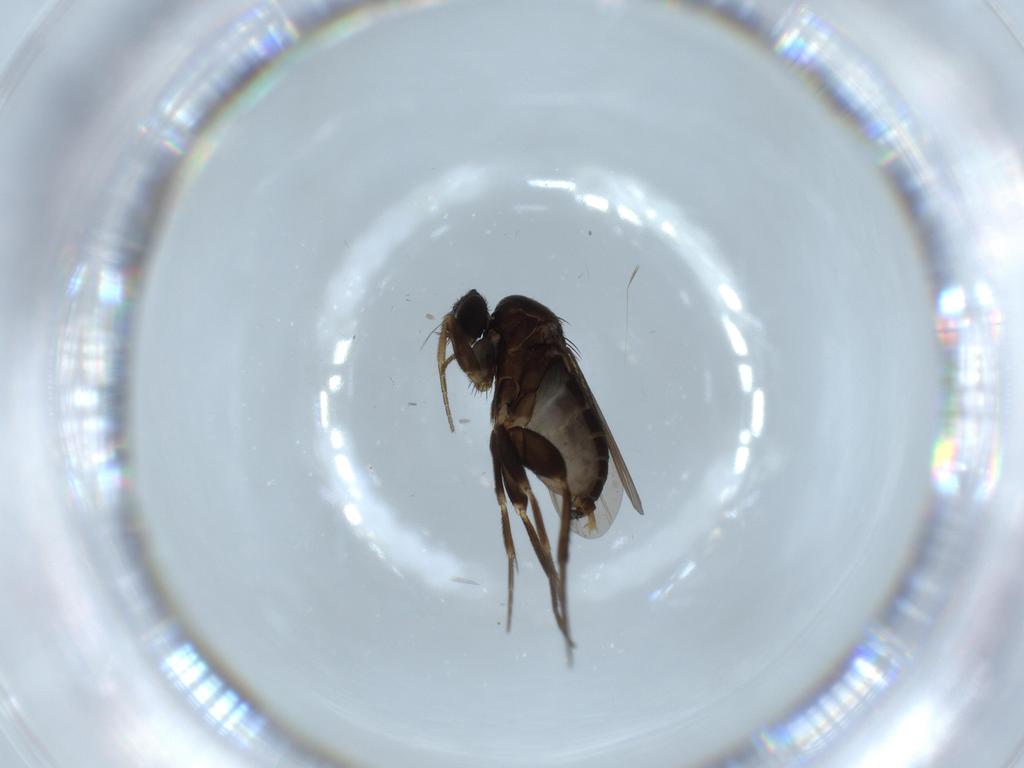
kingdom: Animalia
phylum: Arthropoda
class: Insecta
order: Diptera
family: Phoridae
